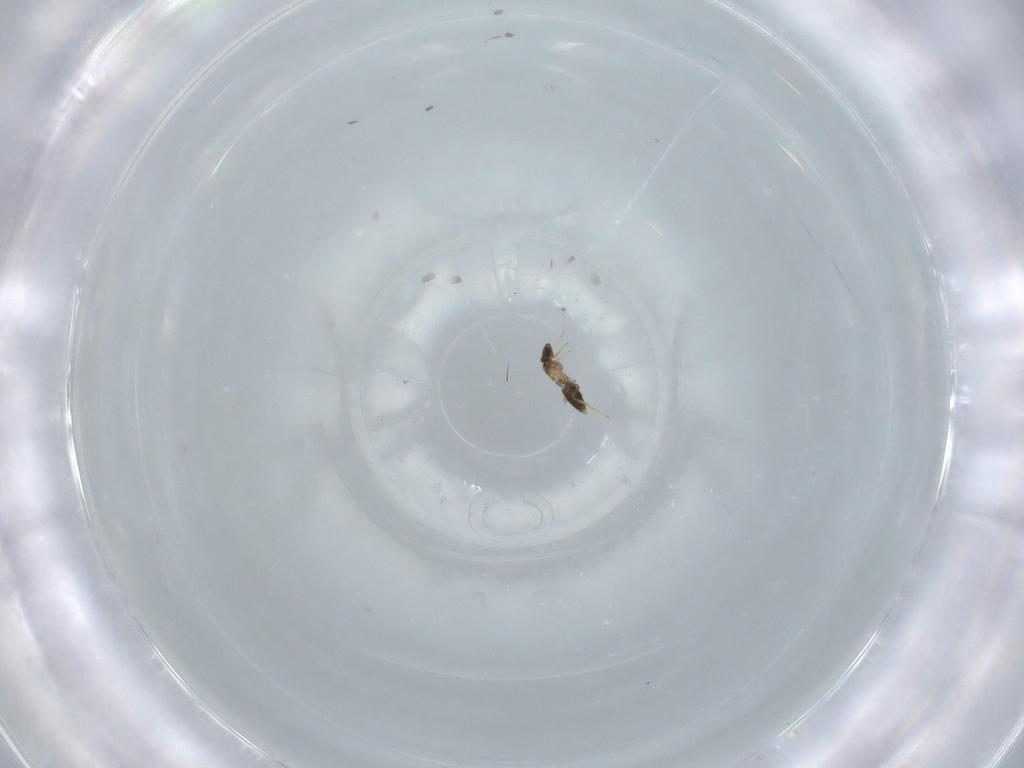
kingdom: Animalia
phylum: Arthropoda
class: Insecta
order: Hymenoptera
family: Mymaridae
